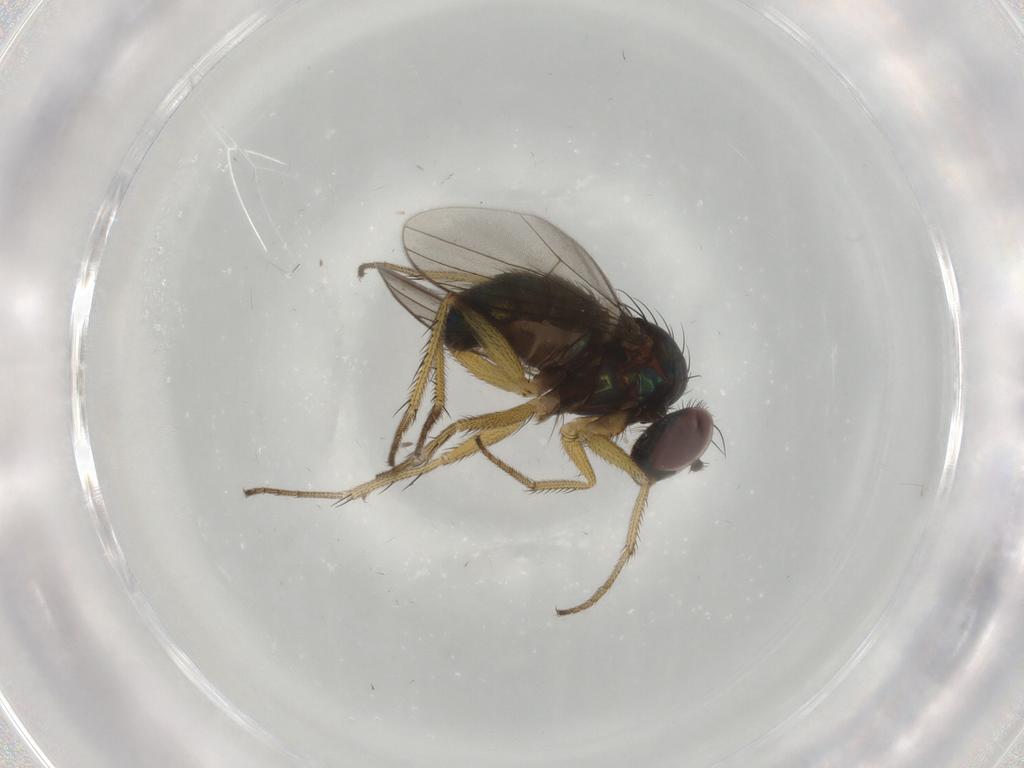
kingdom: Animalia
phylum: Arthropoda
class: Insecta
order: Diptera
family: Dolichopodidae
